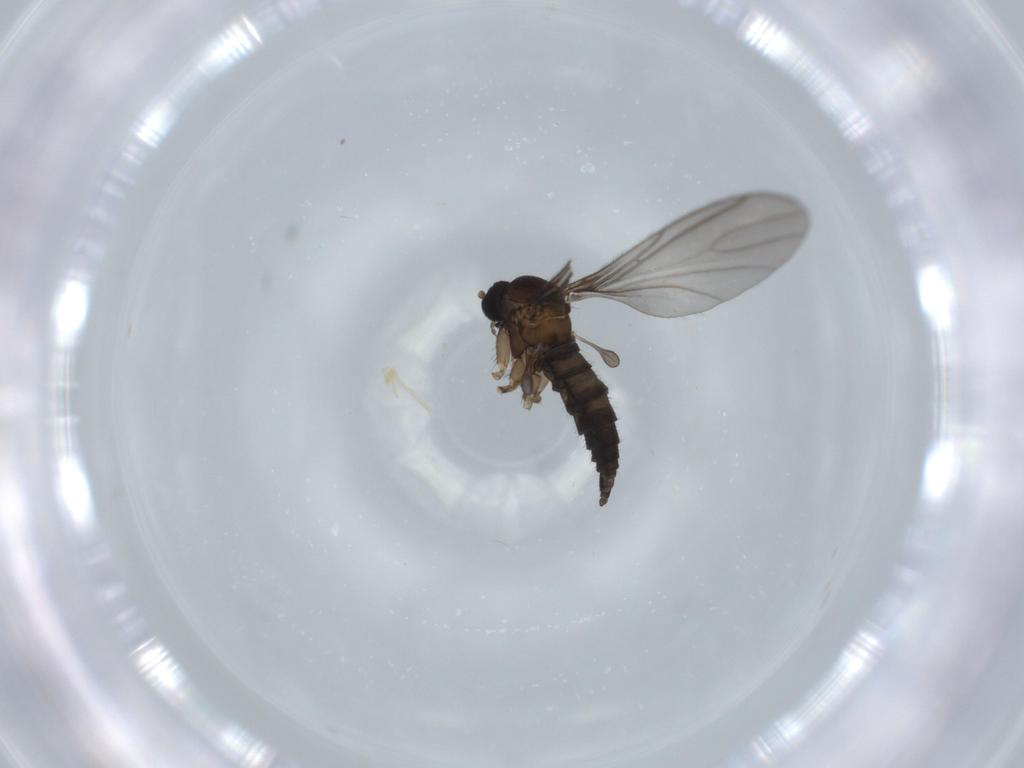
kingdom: Animalia
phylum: Arthropoda
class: Insecta
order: Diptera
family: Sciaridae
